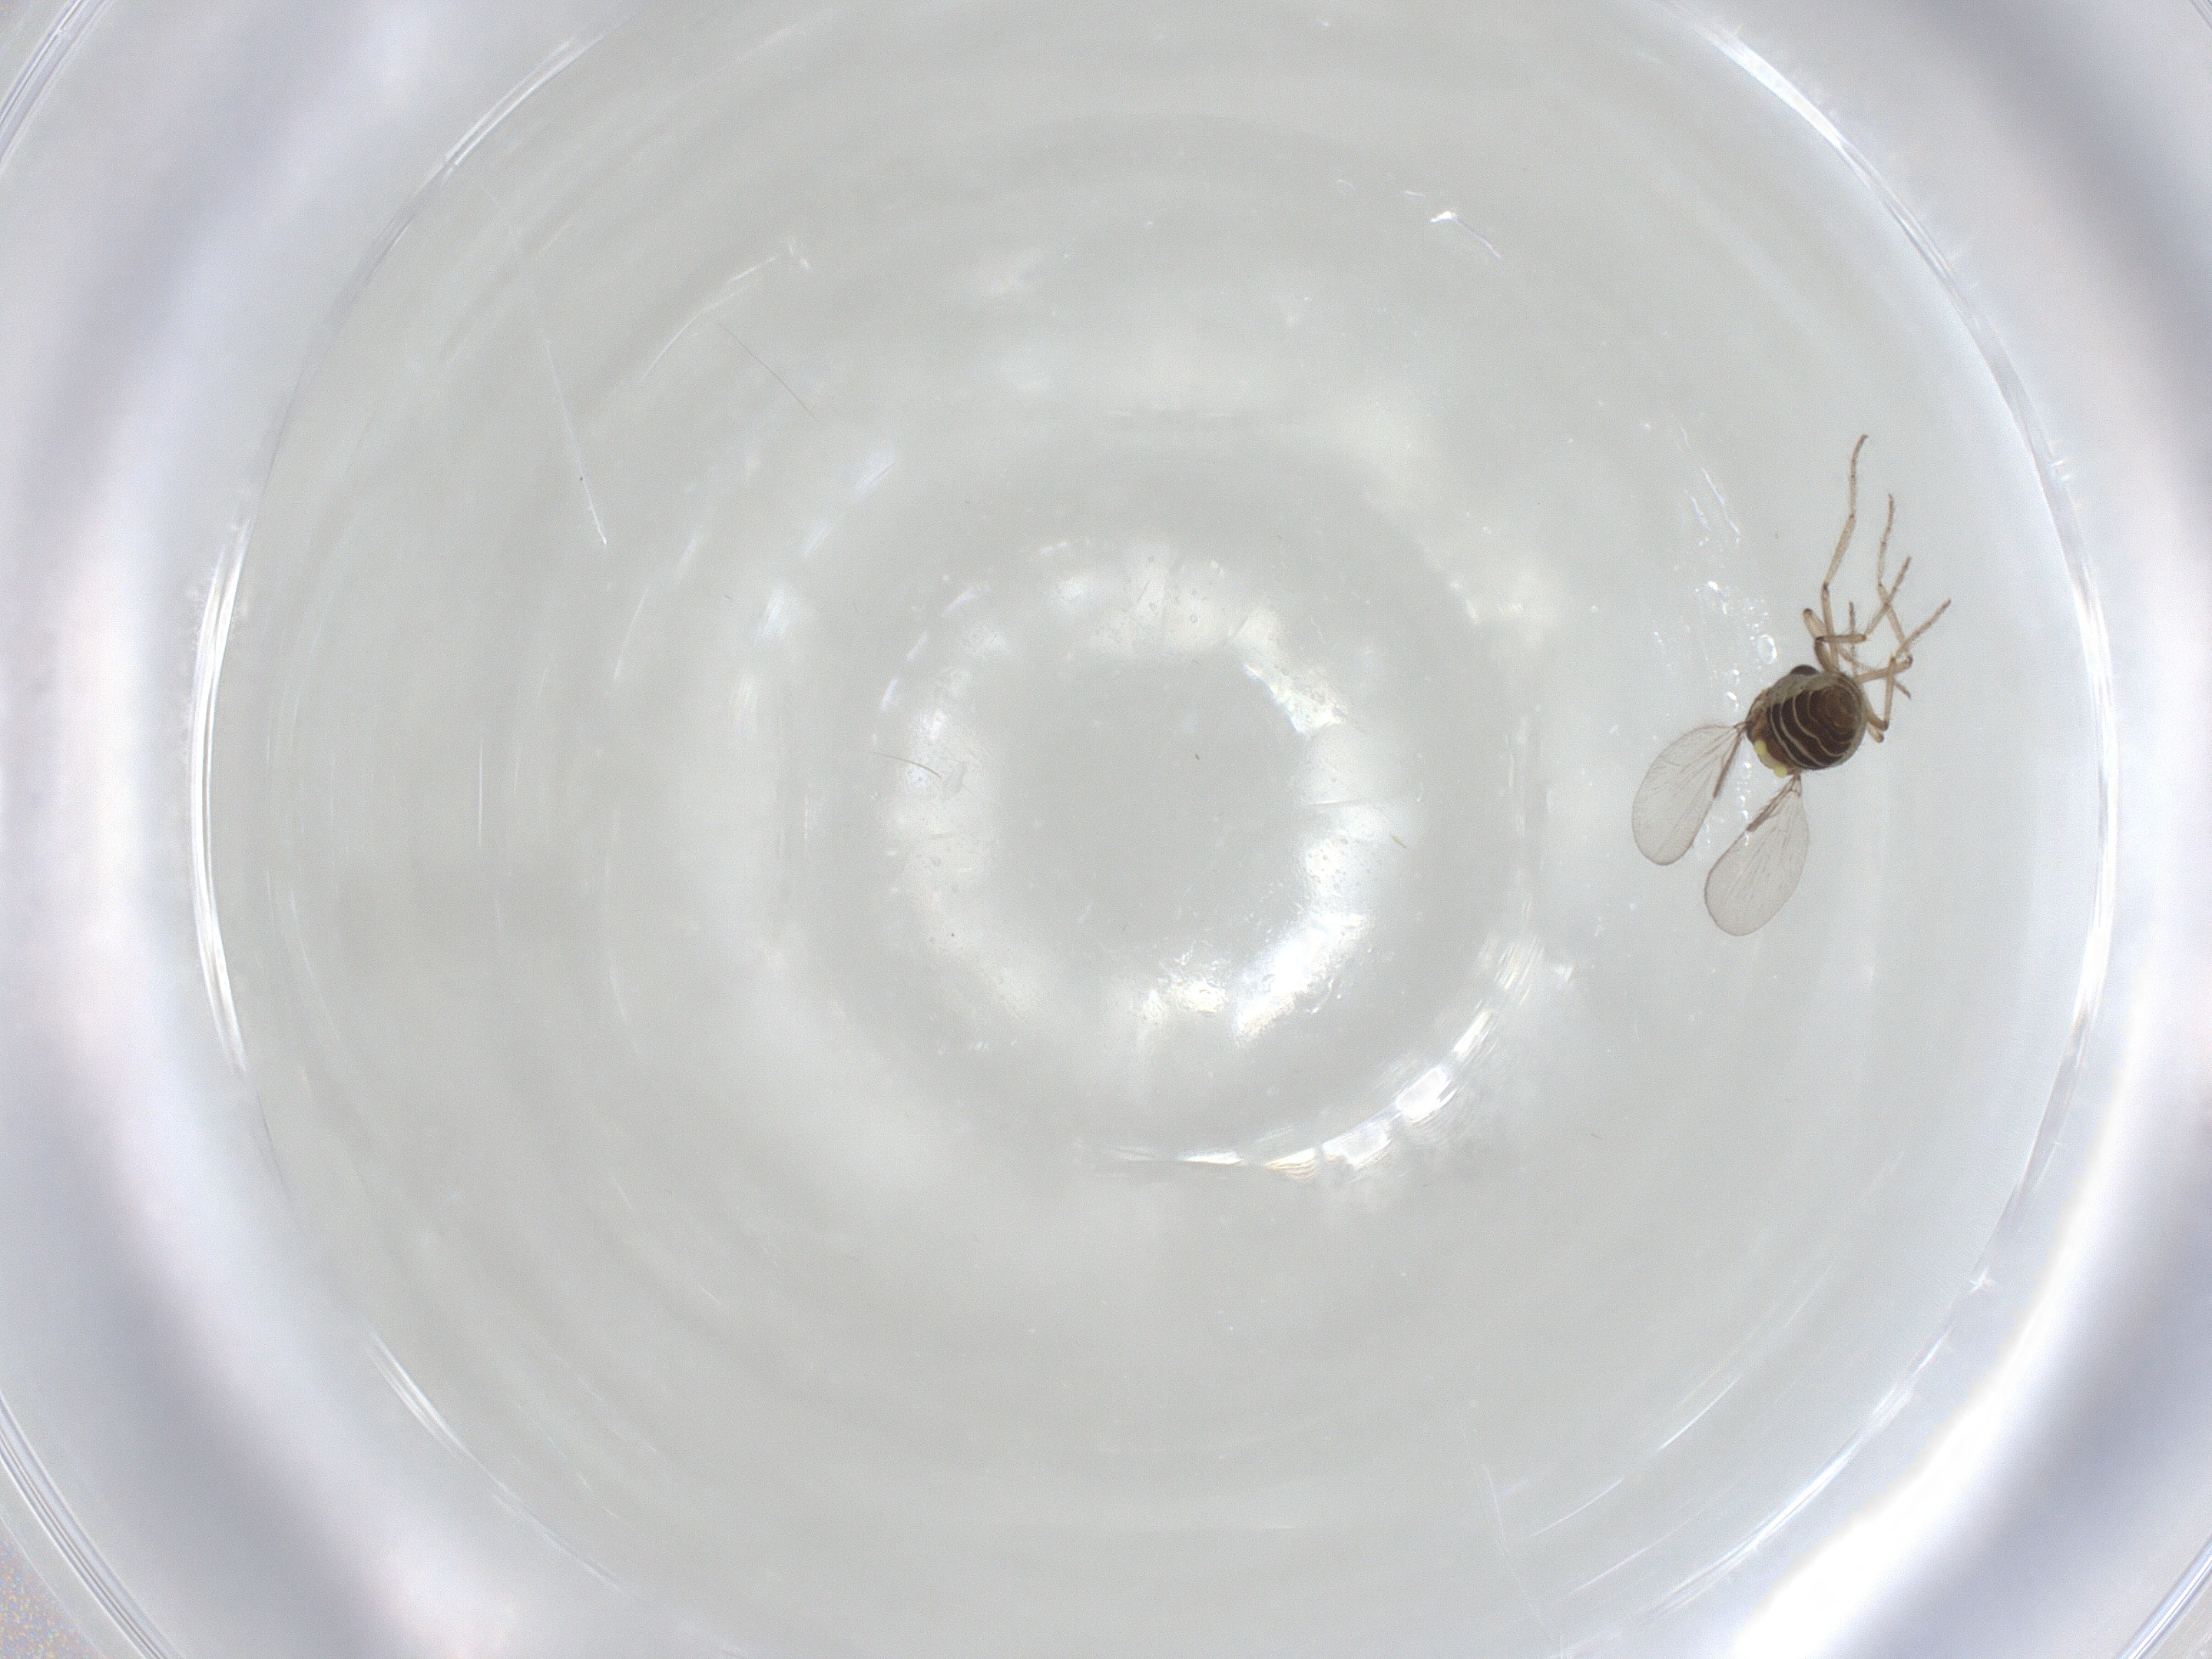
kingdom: Animalia
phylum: Arthropoda
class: Insecta
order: Diptera
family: Ceratopogonidae
